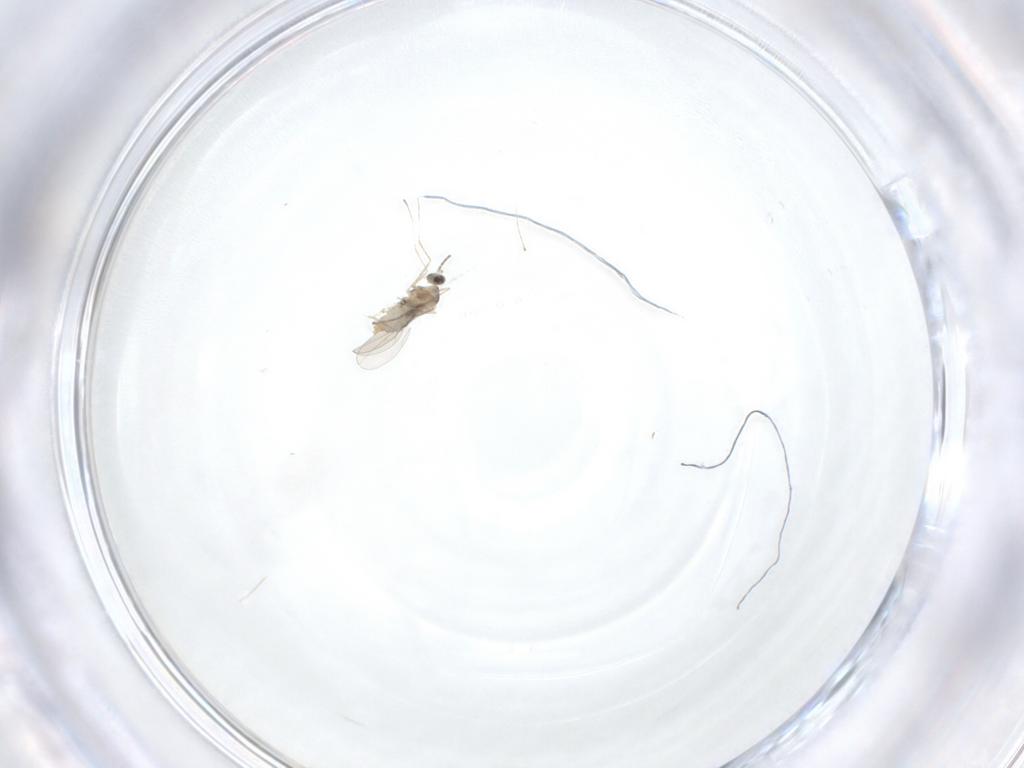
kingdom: Animalia
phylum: Arthropoda
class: Insecta
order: Diptera
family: Cecidomyiidae
